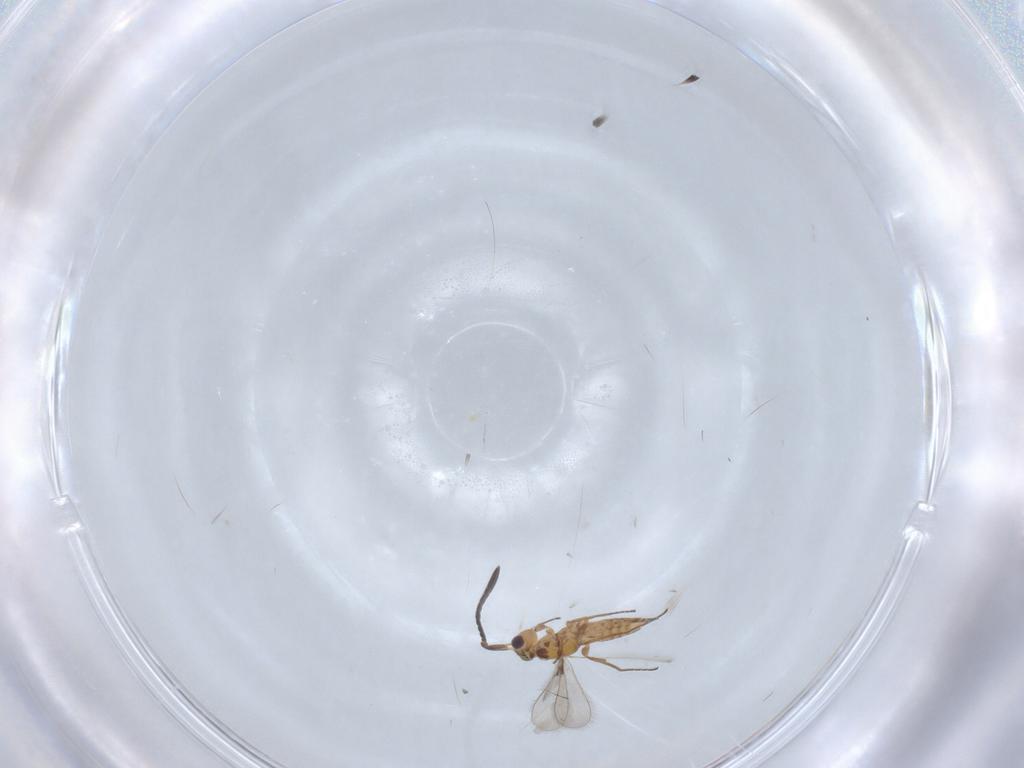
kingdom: Animalia
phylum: Arthropoda
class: Insecta
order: Hymenoptera
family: Mymaridae
